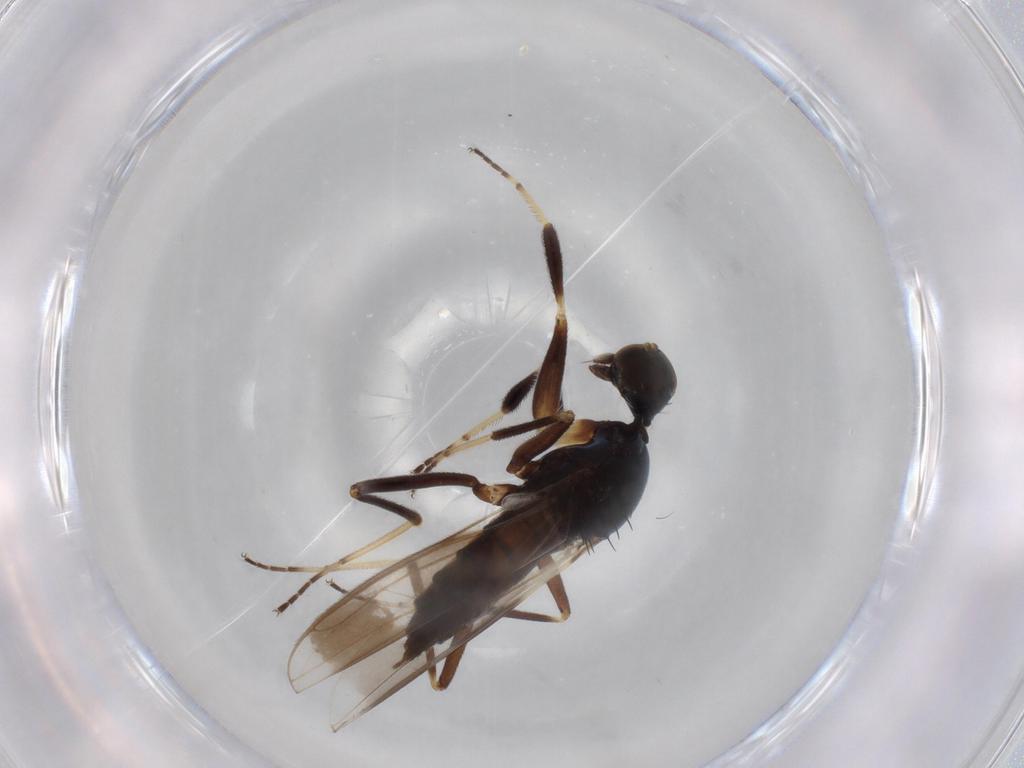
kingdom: Animalia
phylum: Arthropoda
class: Insecta
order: Diptera
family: Hybotidae
